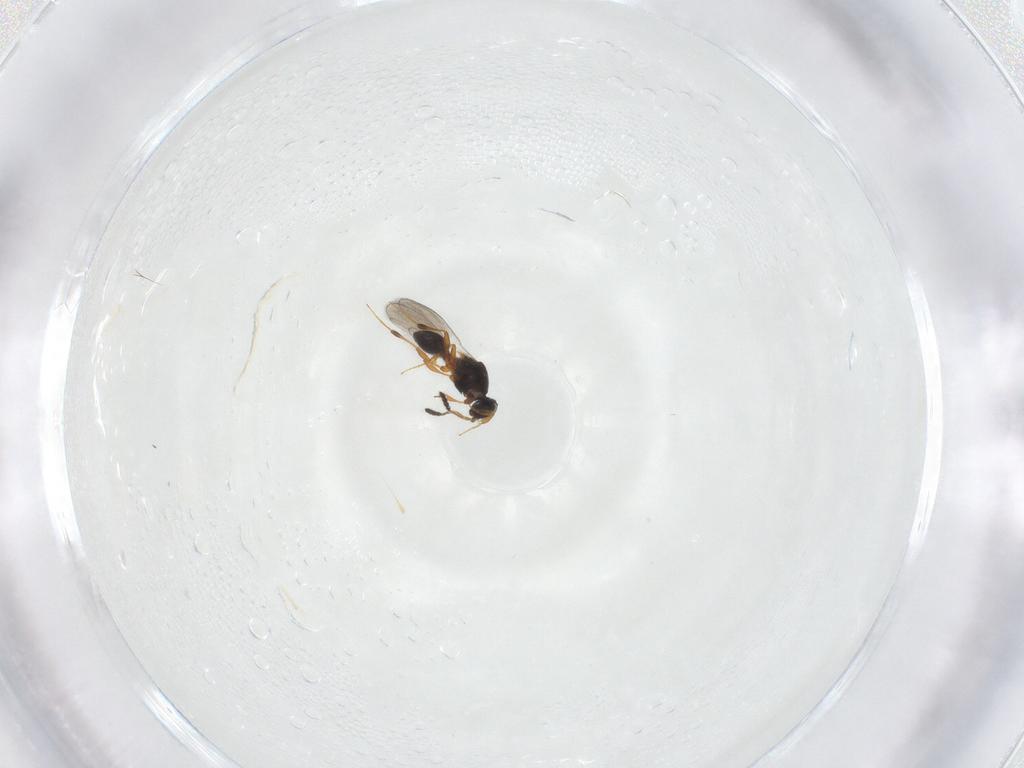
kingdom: Animalia
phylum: Arthropoda
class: Insecta
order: Hymenoptera
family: Platygastridae
